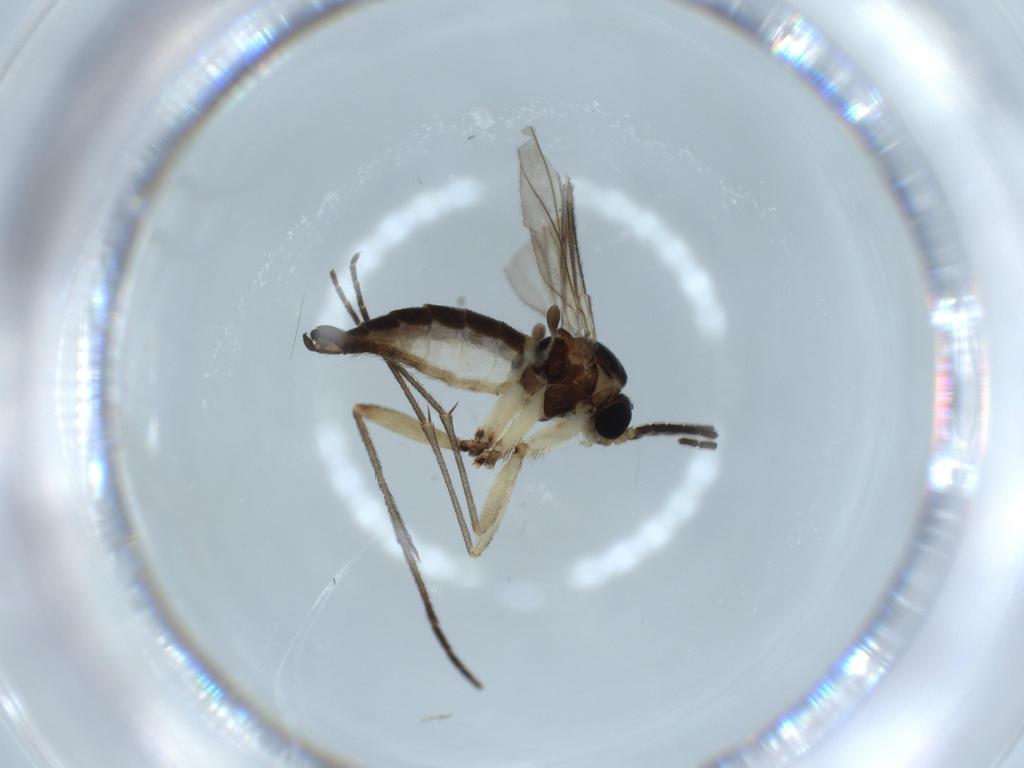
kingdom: Animalia
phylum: Arthropoda
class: Insecta
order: Diptera
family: Sciaridae
